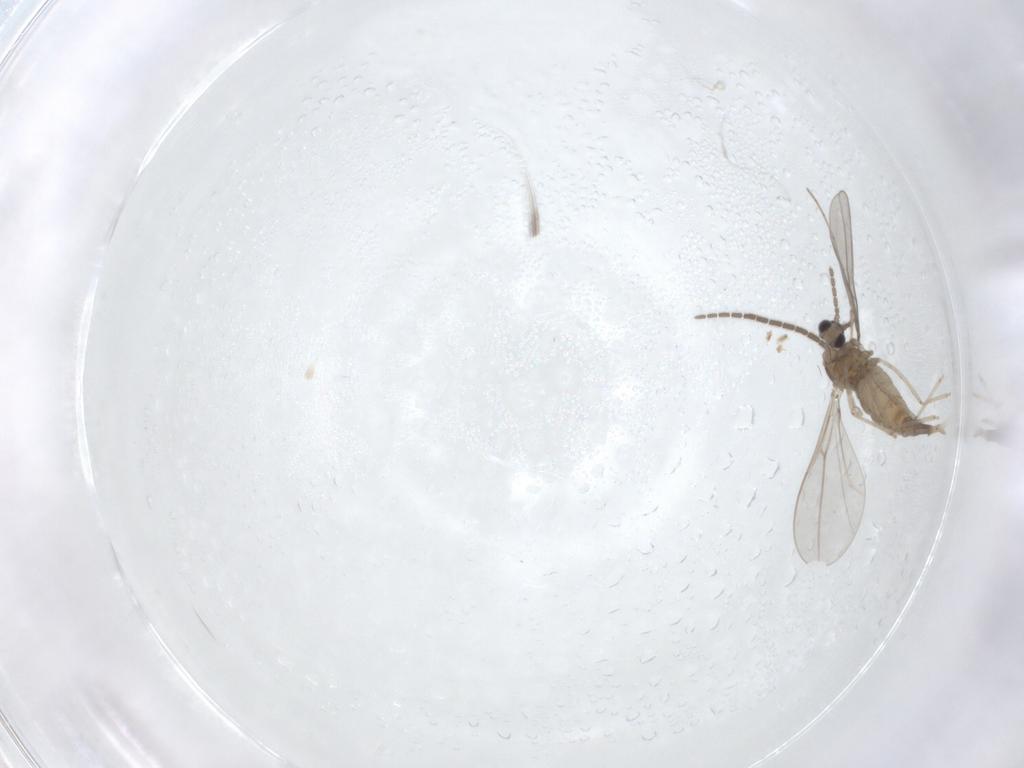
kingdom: Animalia
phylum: Arthropoda
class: Insecta
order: Diptera
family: Cecidomyiidae
